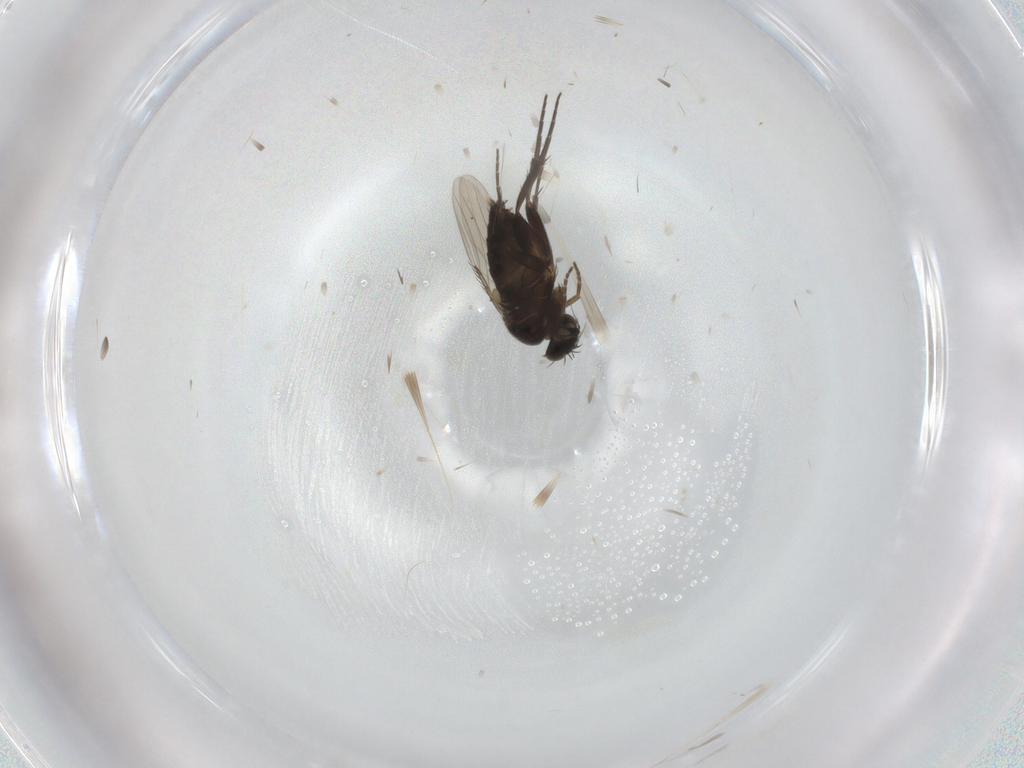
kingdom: Animalia
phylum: Arthropoda
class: Insecta
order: Diptera
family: Phoridae
